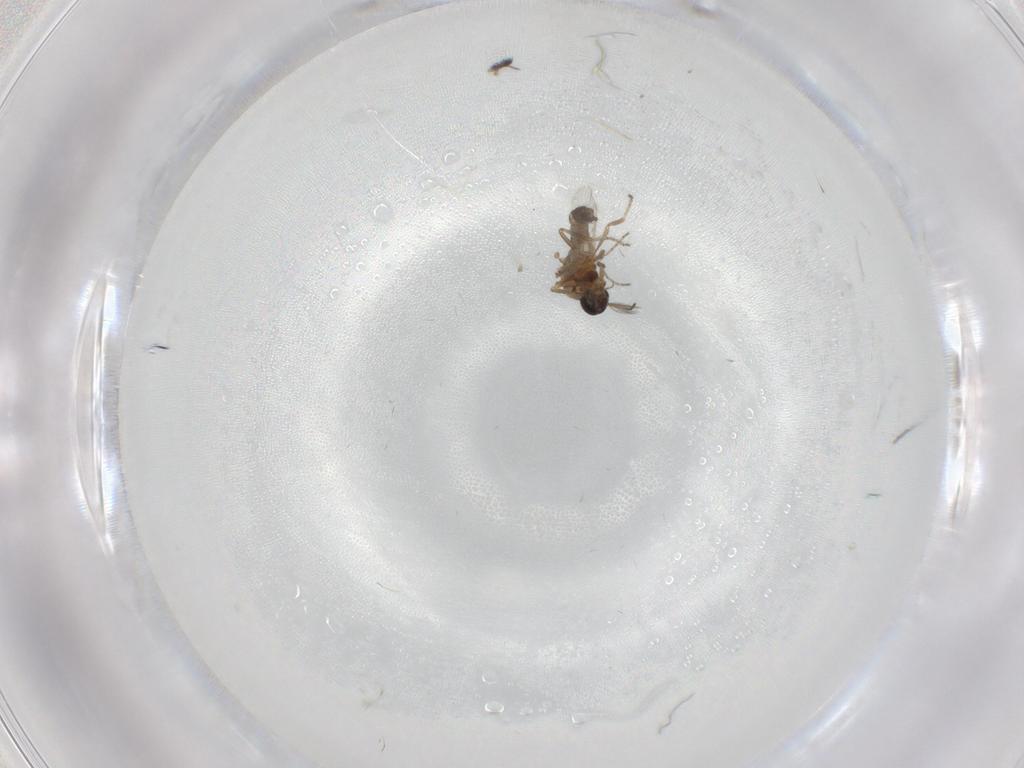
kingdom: Animalia
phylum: Arthropoda
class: Insecta
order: Diptera
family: Ceratopogonidae
